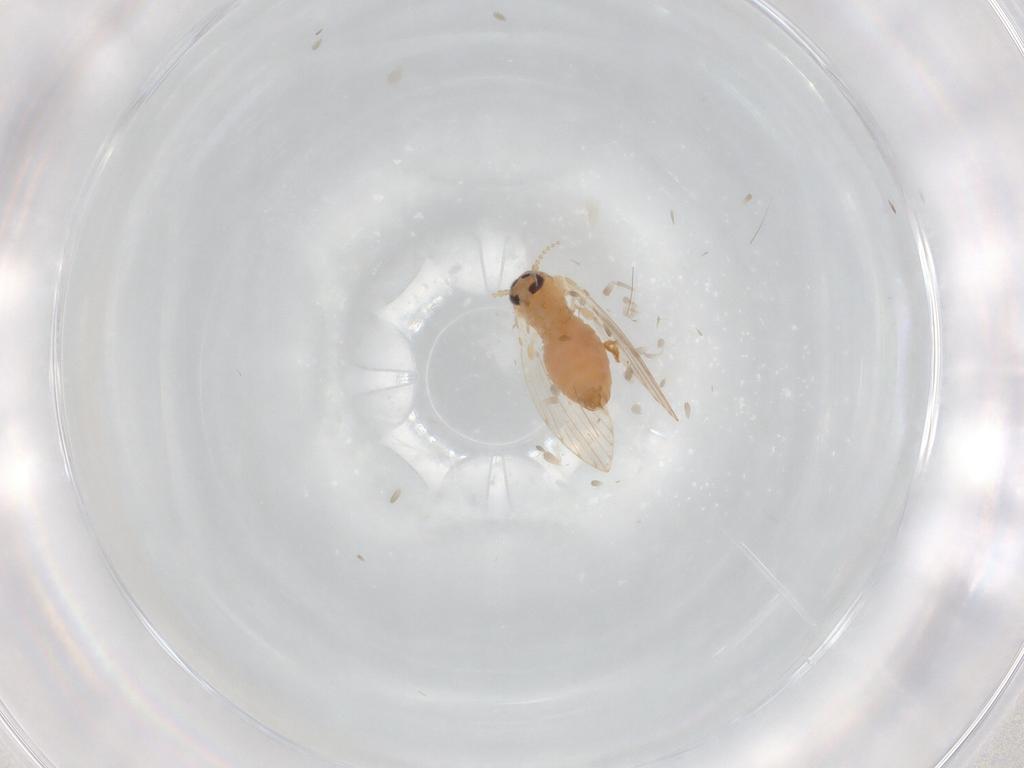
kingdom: Animalia
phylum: Arthropoda
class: Insecta
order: Diptera
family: Psychodidae
